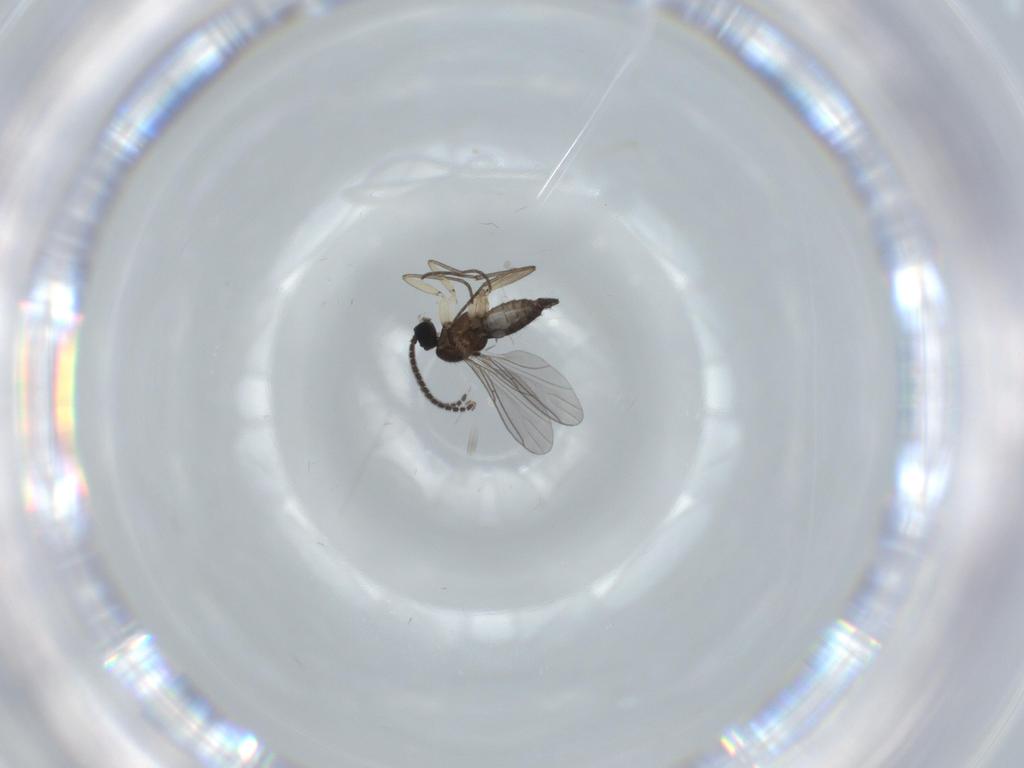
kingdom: Animalia
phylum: Arthropoda
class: Insecta
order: Diptera
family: Sciaridae
